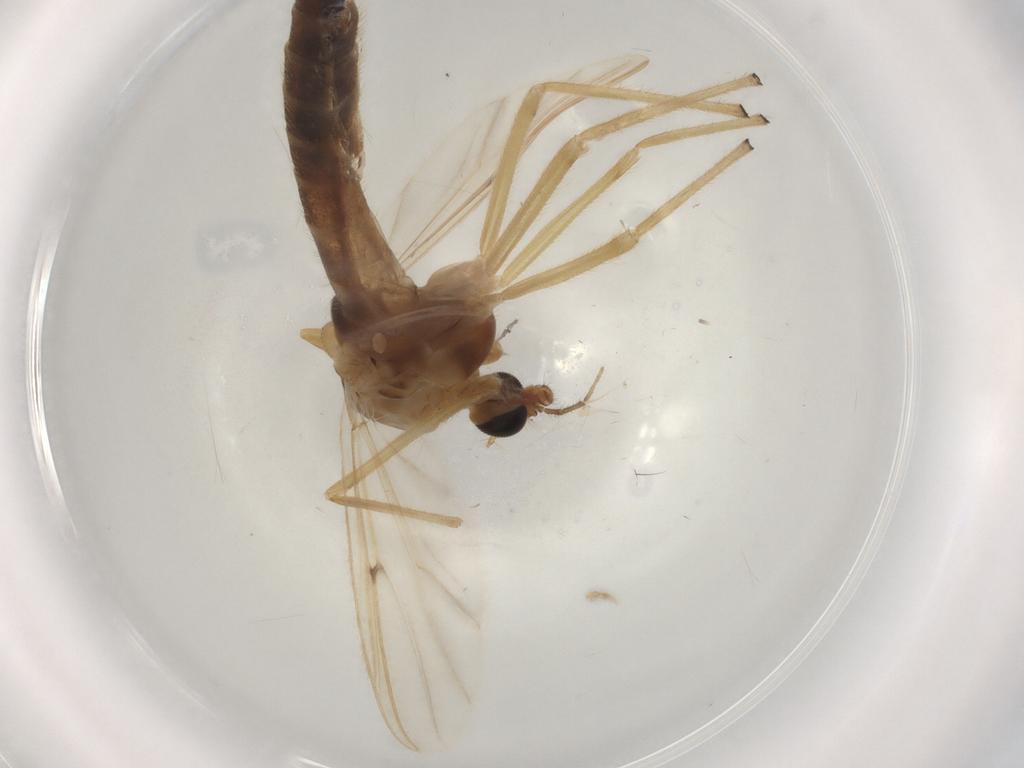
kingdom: Animalia
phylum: Arthropoda
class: Insecta
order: Diptera
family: Chironomidae
